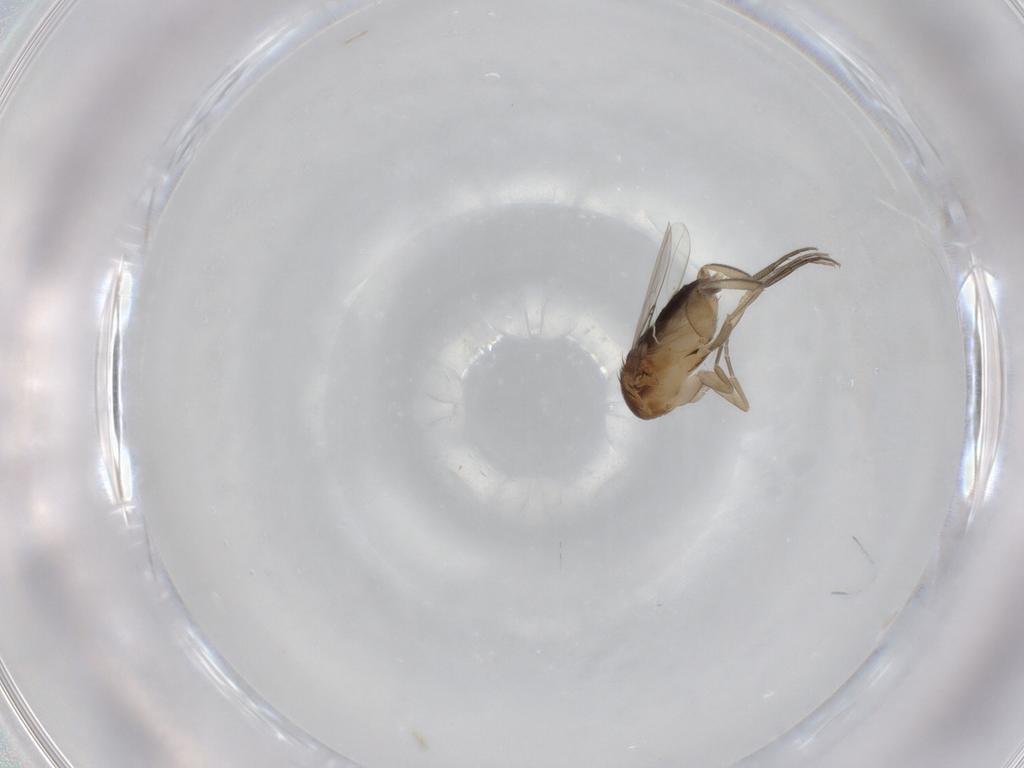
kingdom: Animalia
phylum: Arthropoda
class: Insecta
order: Diptera
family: Phoridae
